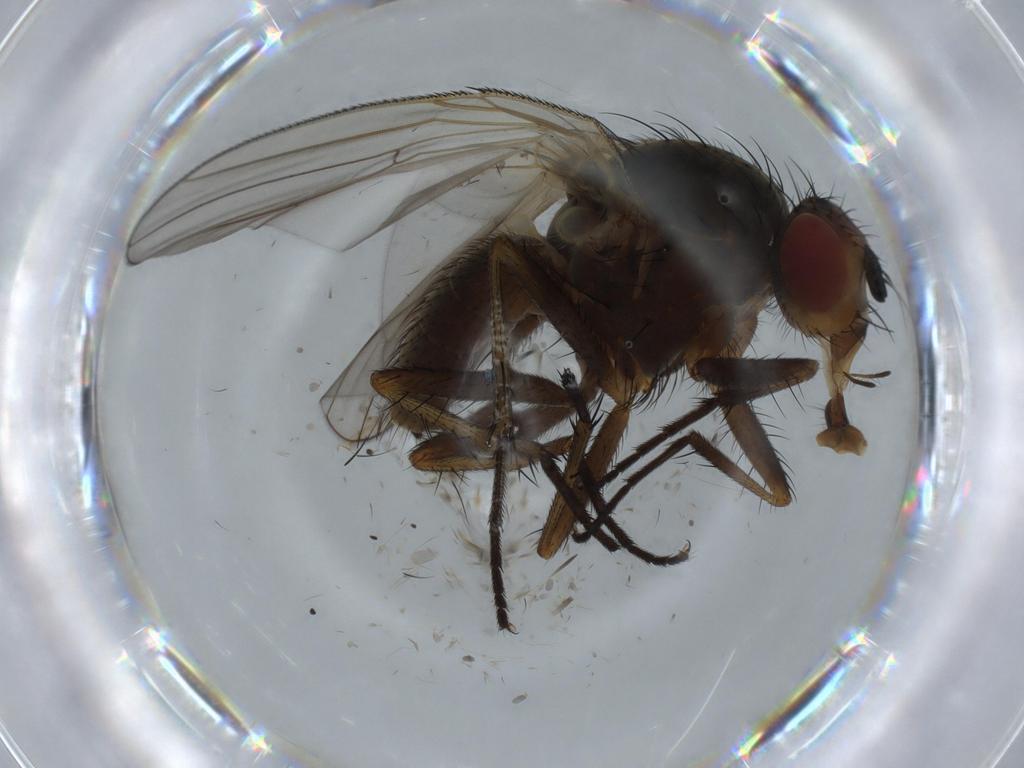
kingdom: Animalia
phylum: Arthropoda
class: Insecta
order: Diptera
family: Anthomyiidae
